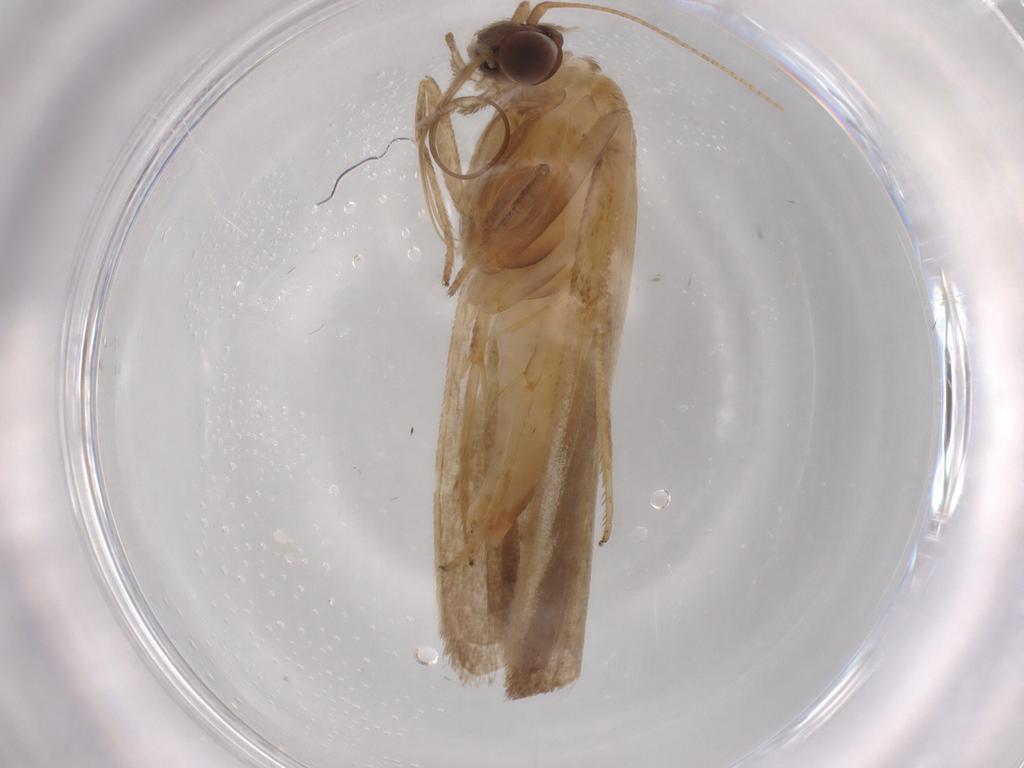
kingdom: Animalia
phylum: Arthropoda
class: Insecta
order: Lepidoptera
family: Noctuidae
